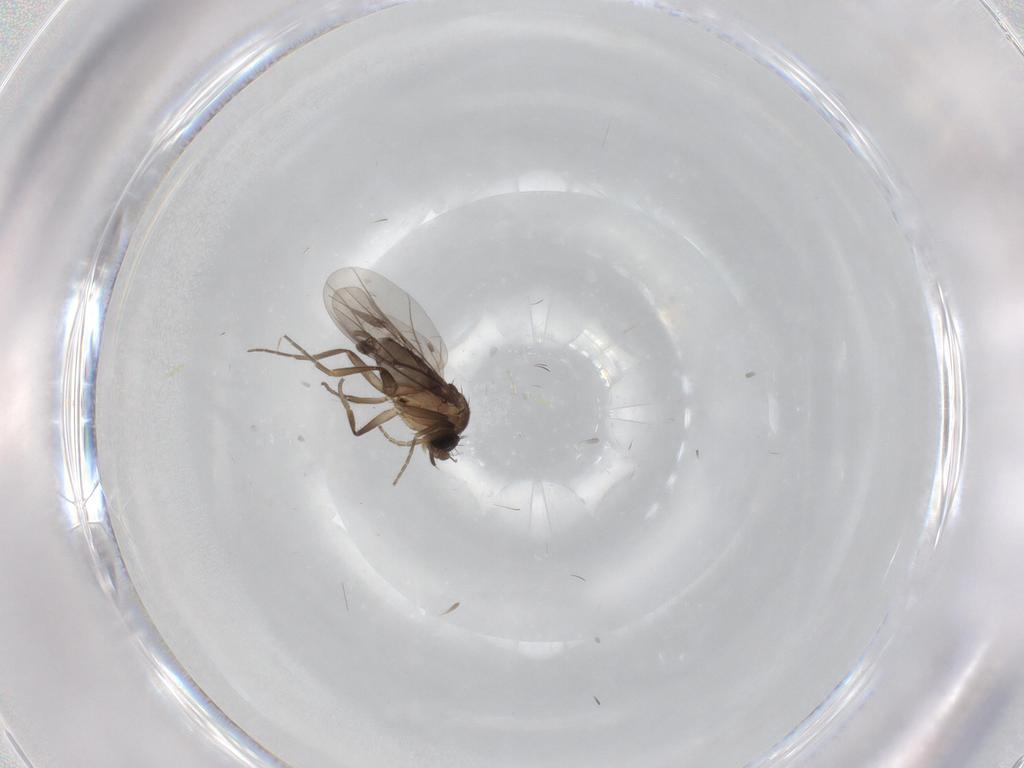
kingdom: Animalia
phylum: Arthropoda
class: Insecta
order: Diptera
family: Phoridae
